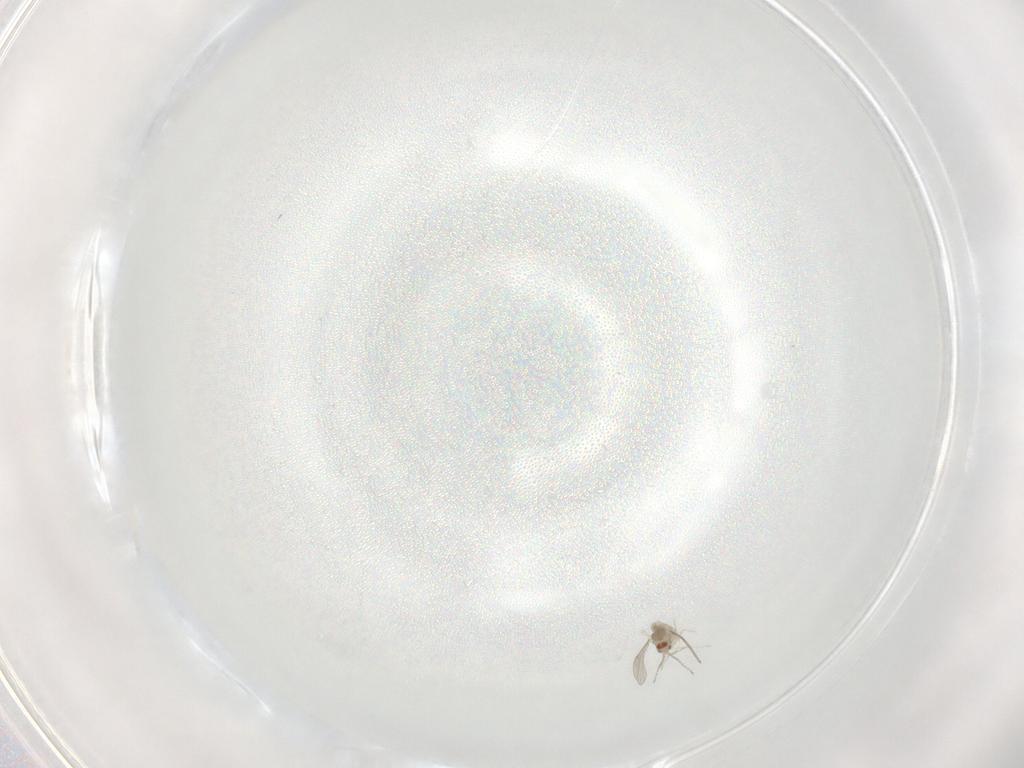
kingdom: Animalia
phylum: Arthropoda
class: Insecta
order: Diptera
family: Cecidomyiidae
